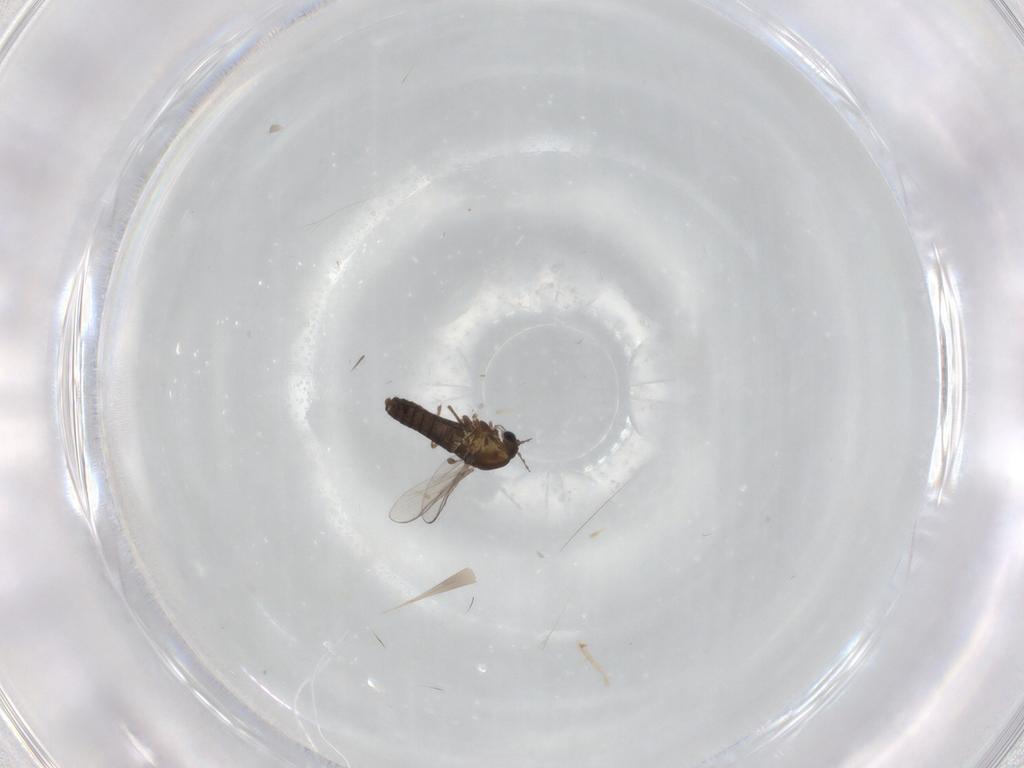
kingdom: Animalia
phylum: Arthropoda
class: Insecta
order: Diptera
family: Chironomidae
